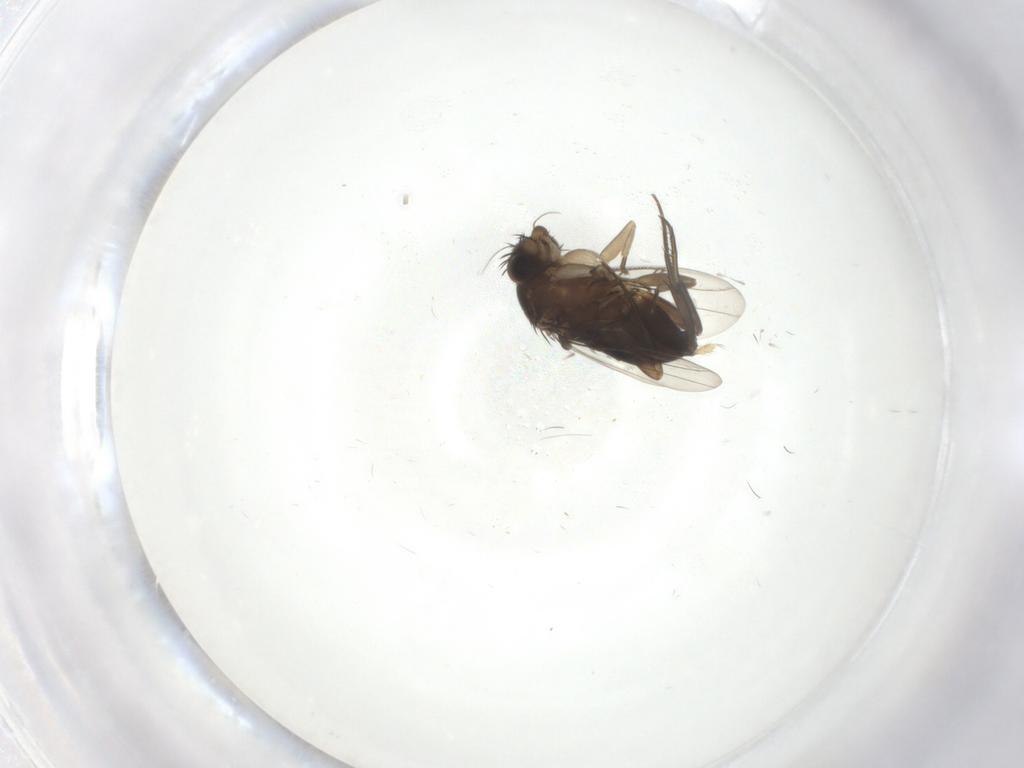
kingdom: Animalia
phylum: Arthropoda
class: Insecta
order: Diptera
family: Phoridae
